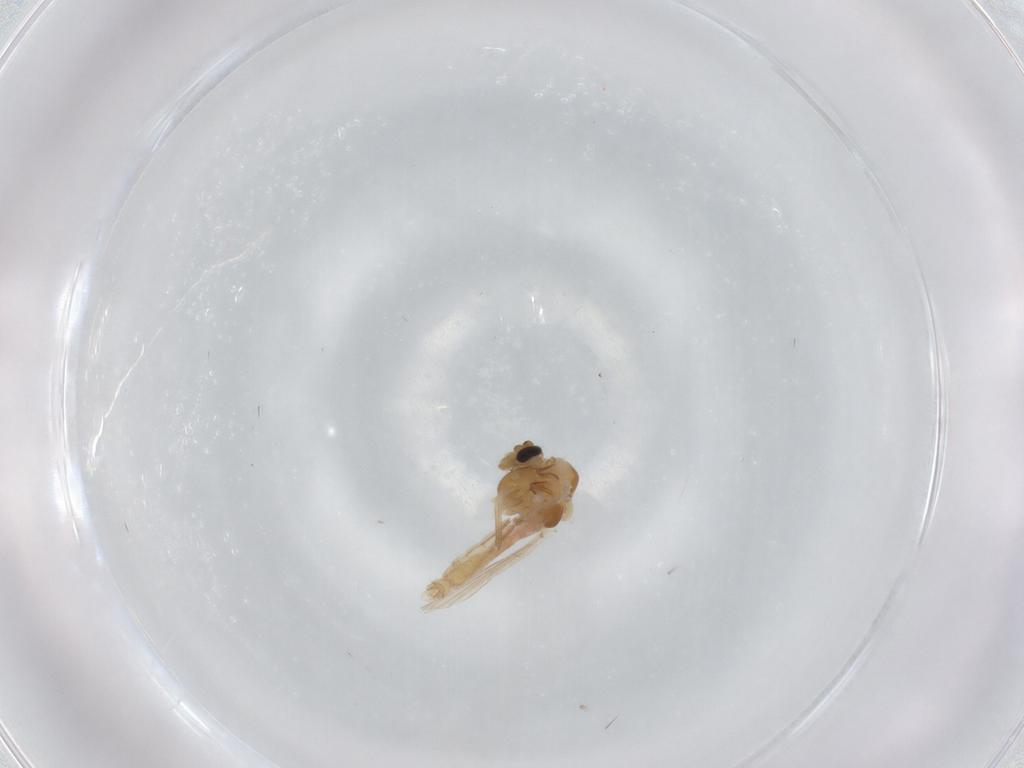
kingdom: Animalia
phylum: Arthropoda
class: Insecta
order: Diptera
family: Chironomidae
